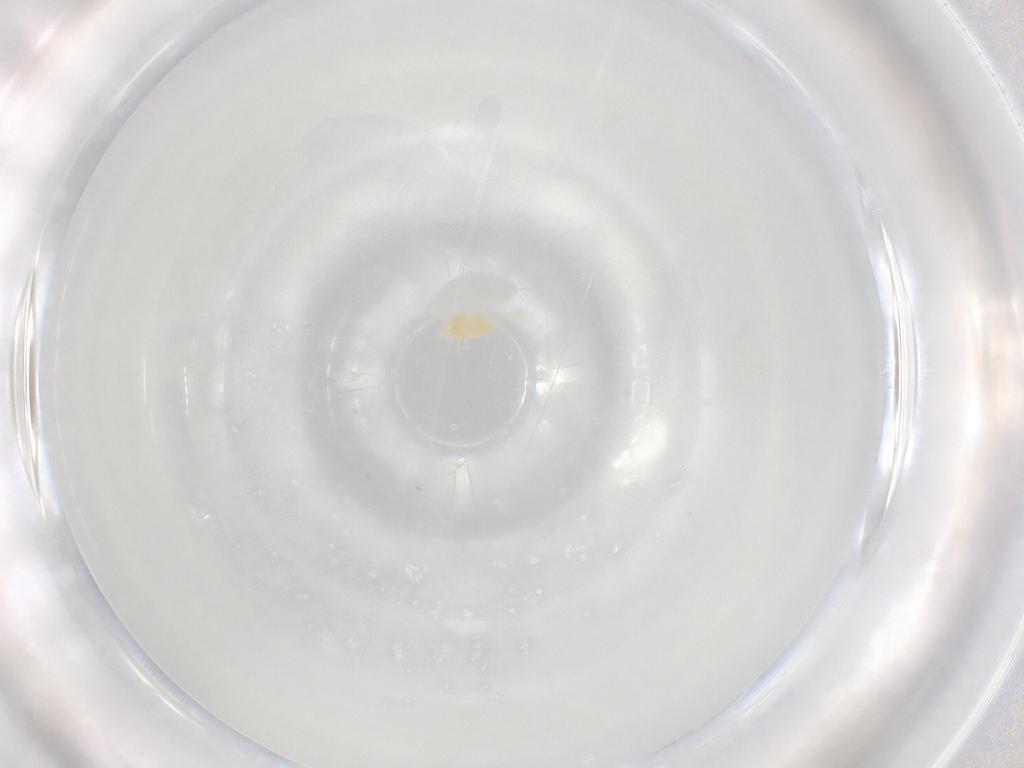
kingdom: Animalia
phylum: Arthropoda
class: Arachnida
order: Trombidiformes
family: Eupodidae
